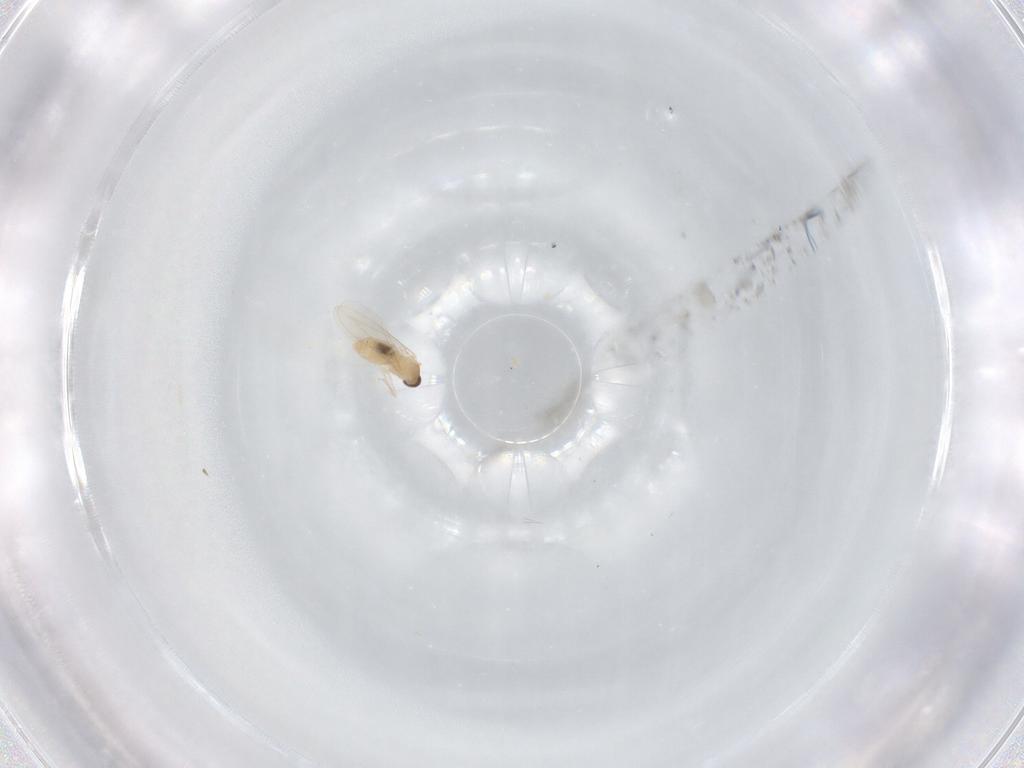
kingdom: Animalia
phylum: Arthropoda
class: Insecta
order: Diptera
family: Cecidomyiidae
